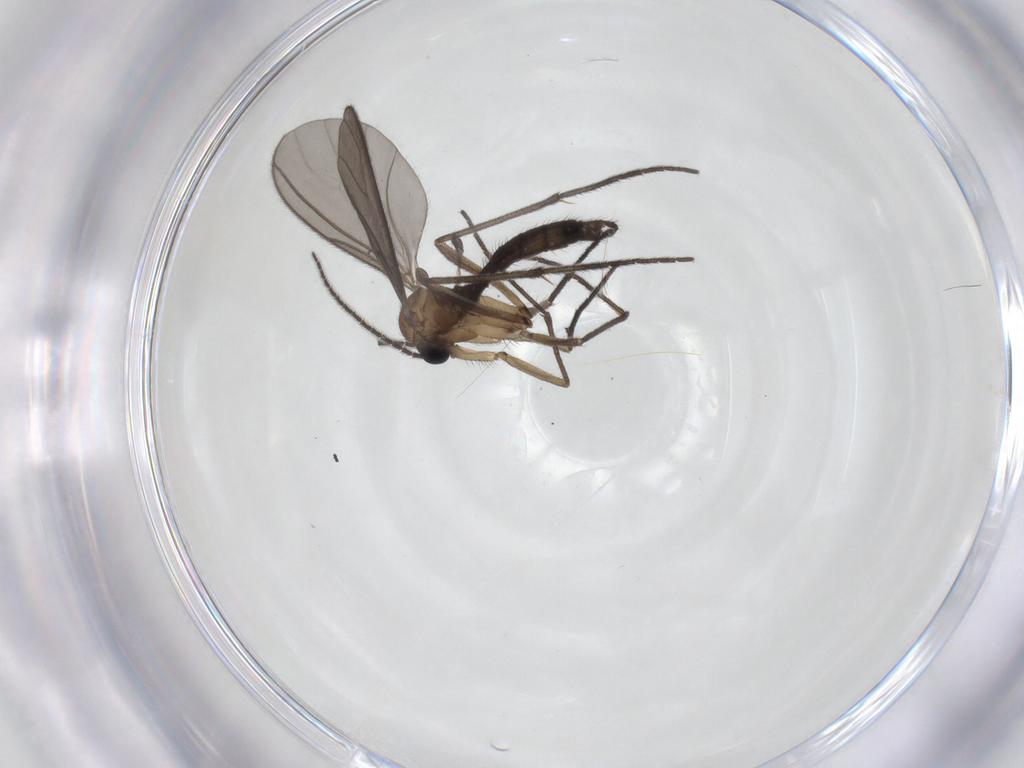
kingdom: Animalia
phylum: Arthropoda
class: Insecta
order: Diptera
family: Sciaridae
